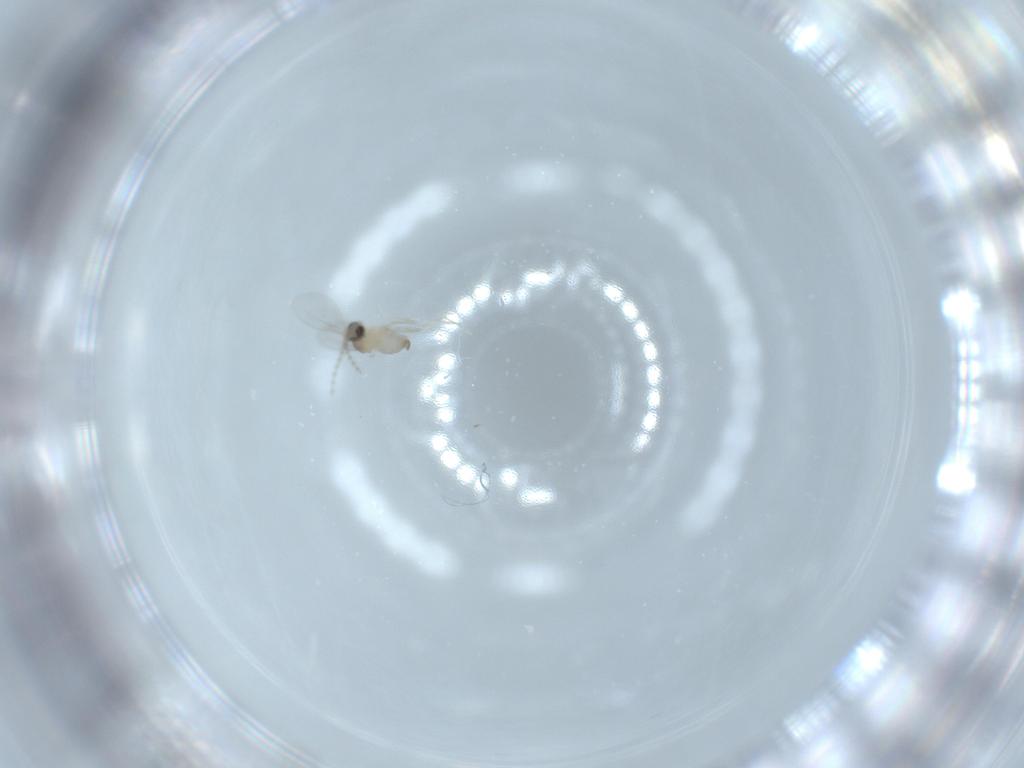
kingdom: Animalia
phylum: Arthropoda
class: Insecta
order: Diptera
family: Cecidomyiidae
